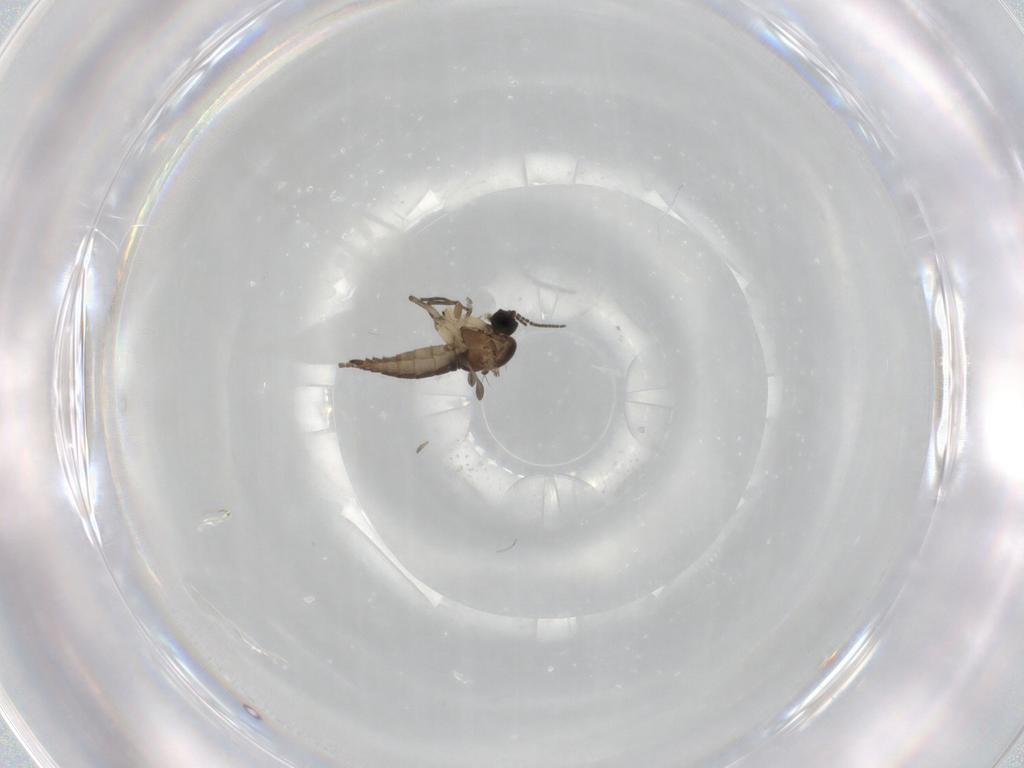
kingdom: Animalia
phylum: Arthropoda
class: Insecta
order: Diptera
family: Sciaridae
